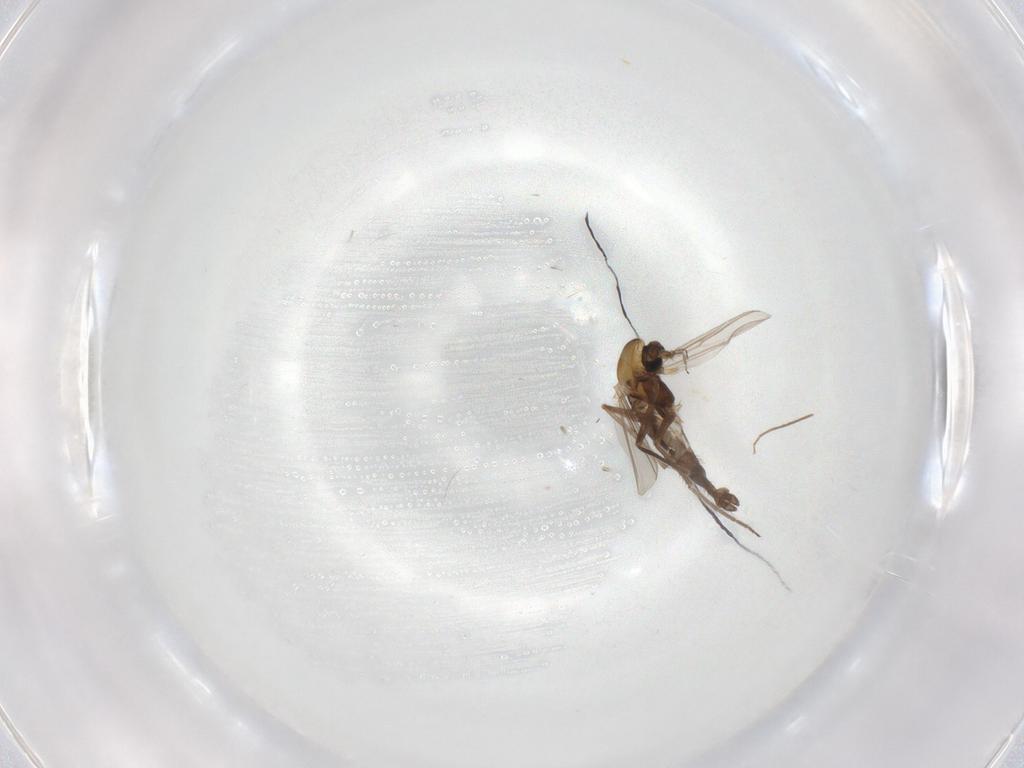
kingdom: Animalia
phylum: Arthropoda
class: Insecta
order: Diptera
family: Chironomidae
